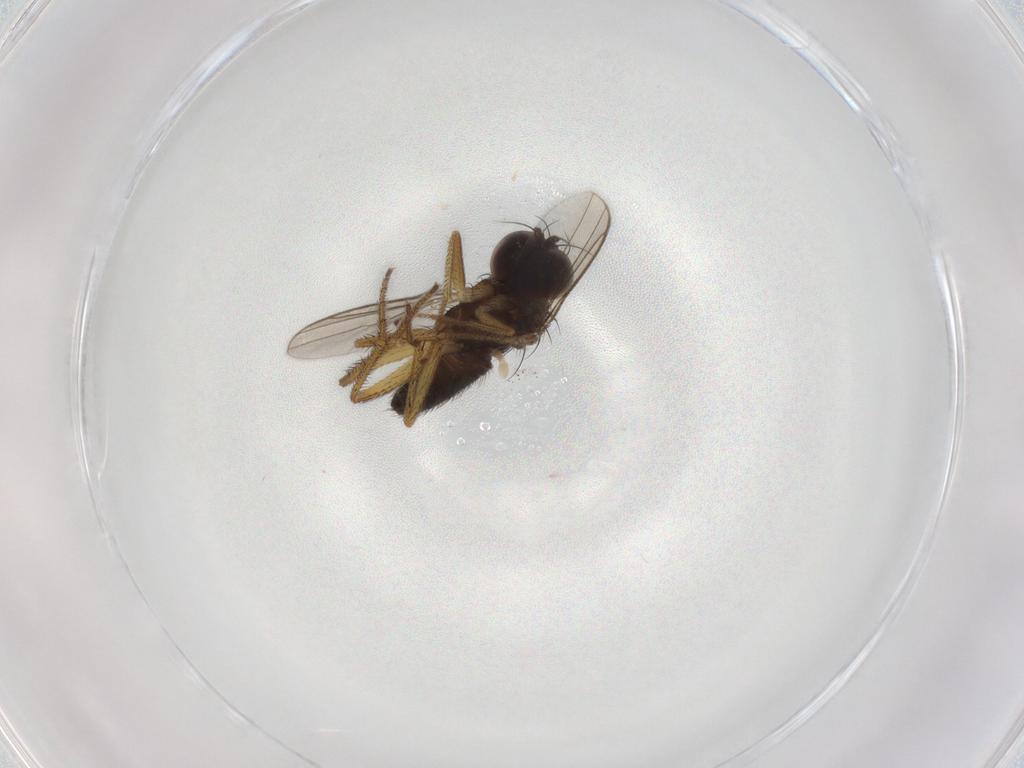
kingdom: Animalia
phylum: Arthropoda
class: Insecta
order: Diptera
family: Dolichopodidae
